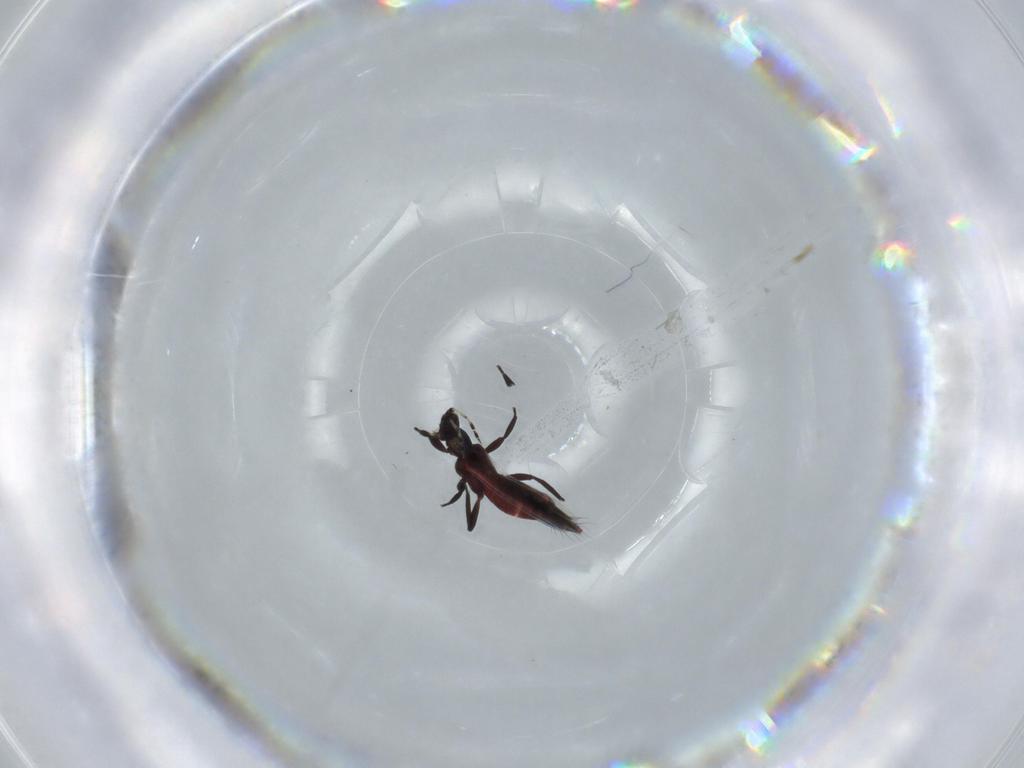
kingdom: Animalia
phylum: Arthropoda
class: Insecta
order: Thysanoptera
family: Aeolothripidae
